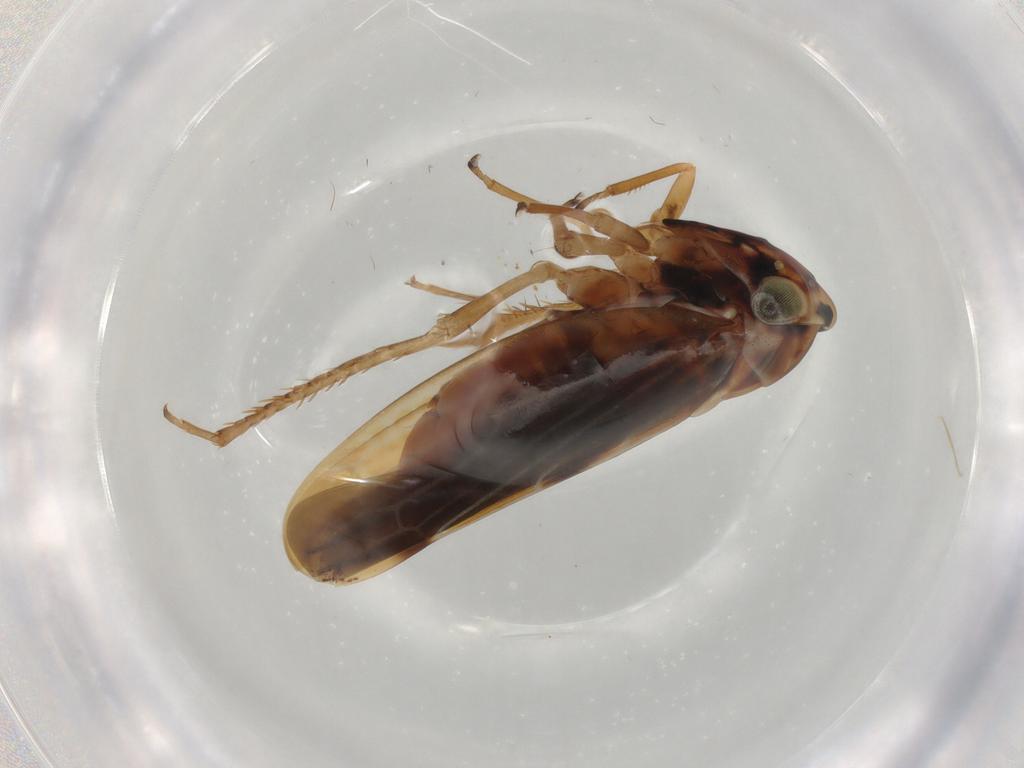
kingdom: Animalia
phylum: Arthropoda
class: Insecta
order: Hemiptera
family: Cicadellidae
